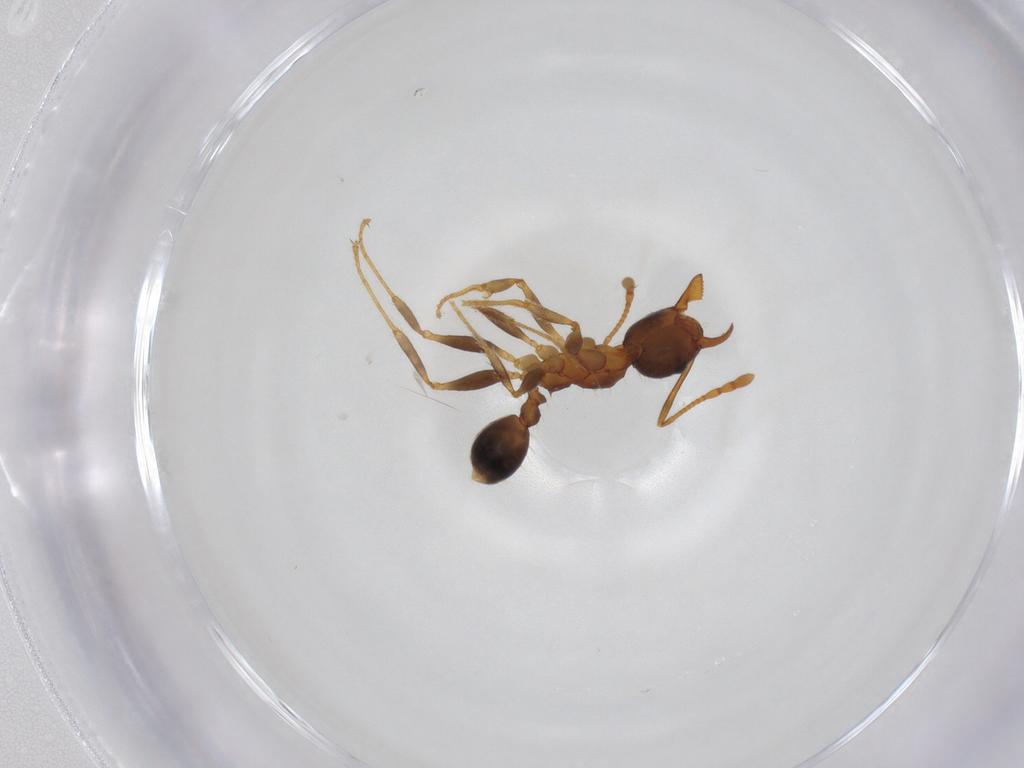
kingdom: Animalia
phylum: Arthropoda
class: Insecta
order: Hymenoptera
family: Formicidae
